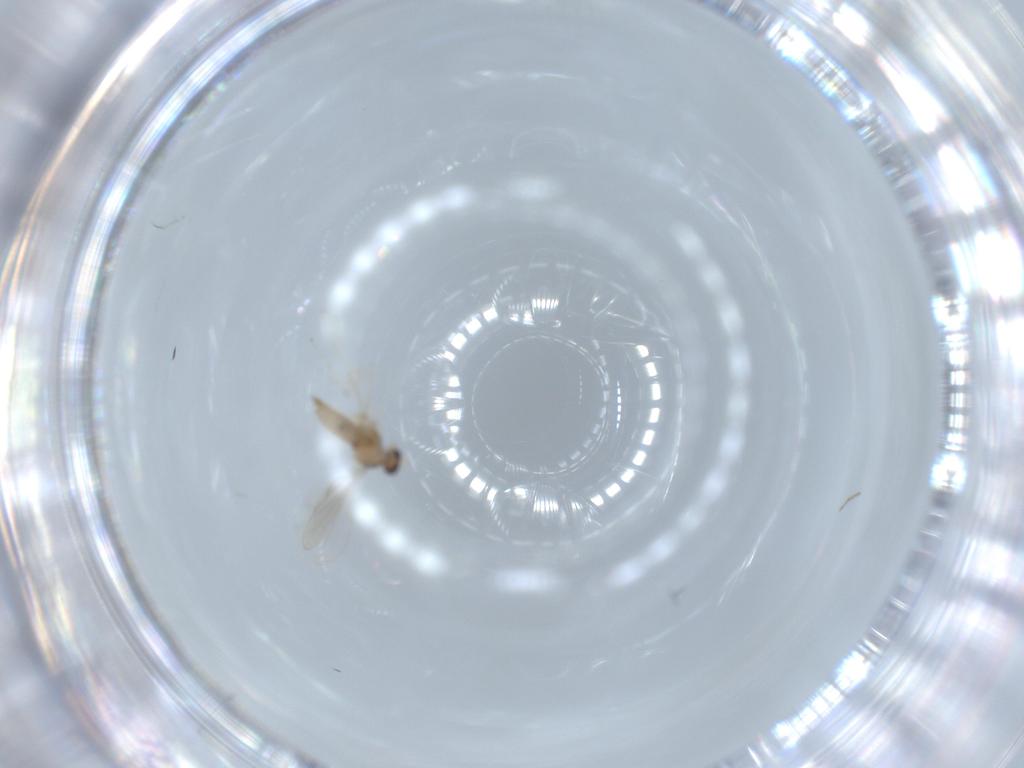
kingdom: Animalia
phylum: Arthropoda
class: Insecta
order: Diptera
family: Cecidomyiidae
